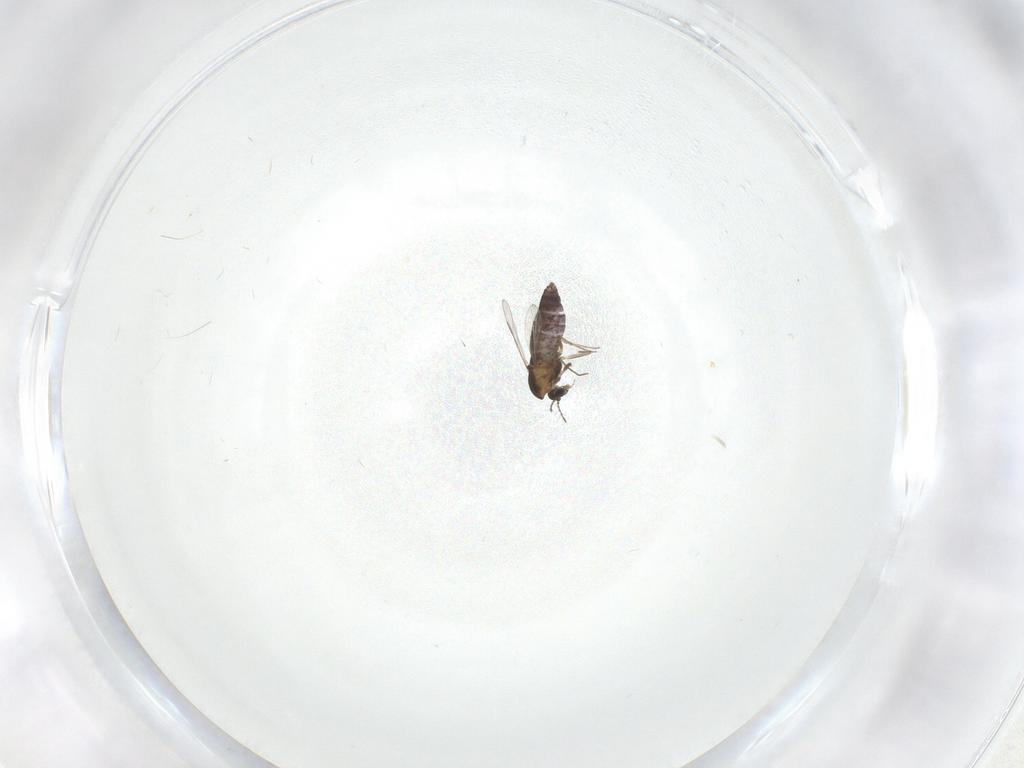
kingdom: Animalia
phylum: Arthropoda
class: Insecta
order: Diptera
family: Chironomidae
